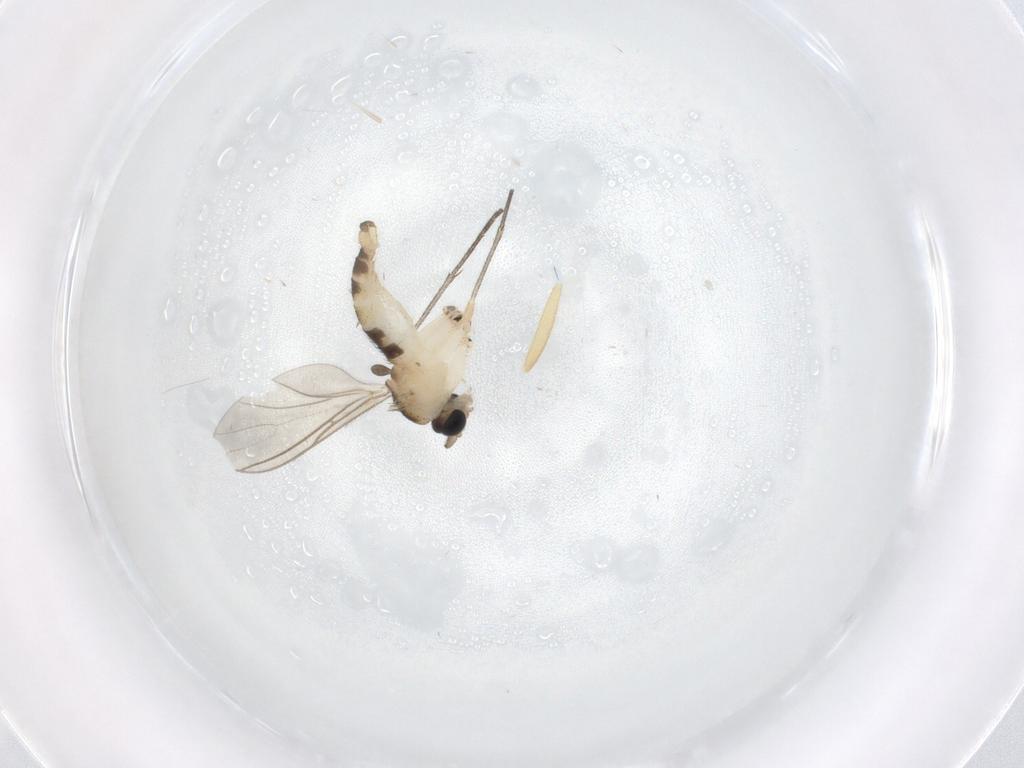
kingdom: Animalia
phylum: Arthropoda
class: Insecta
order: Diptera
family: Sciaridae
